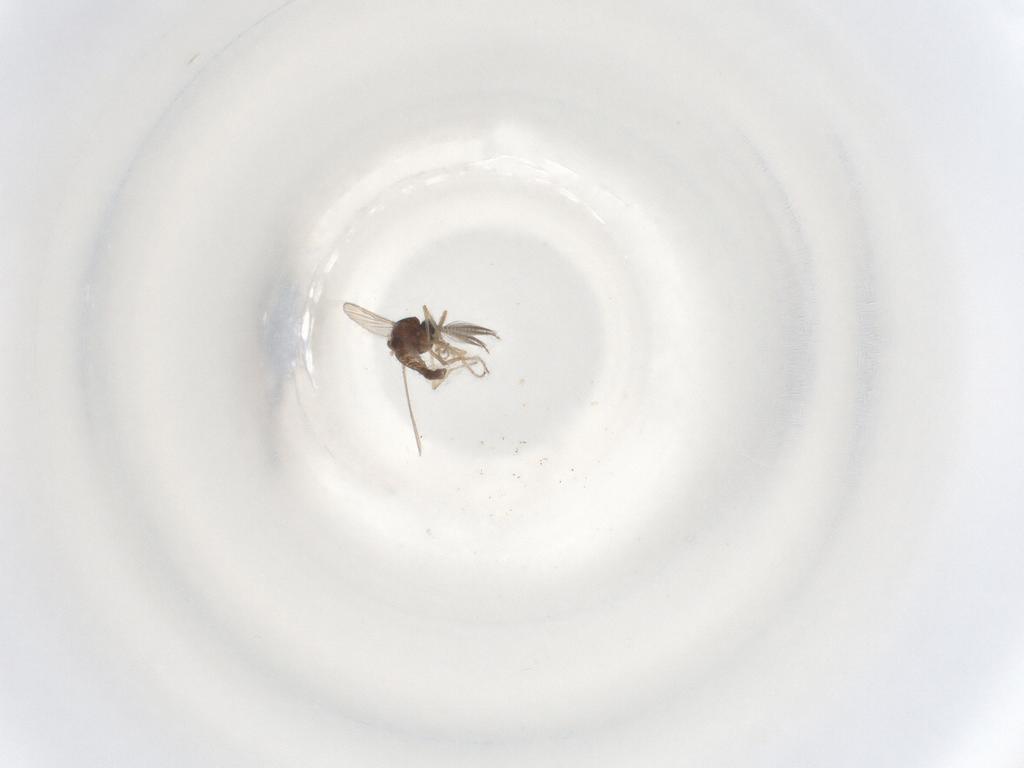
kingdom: Animalia
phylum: Arthropoda
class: Insecta
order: Diptera
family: Ceratopogonidae
